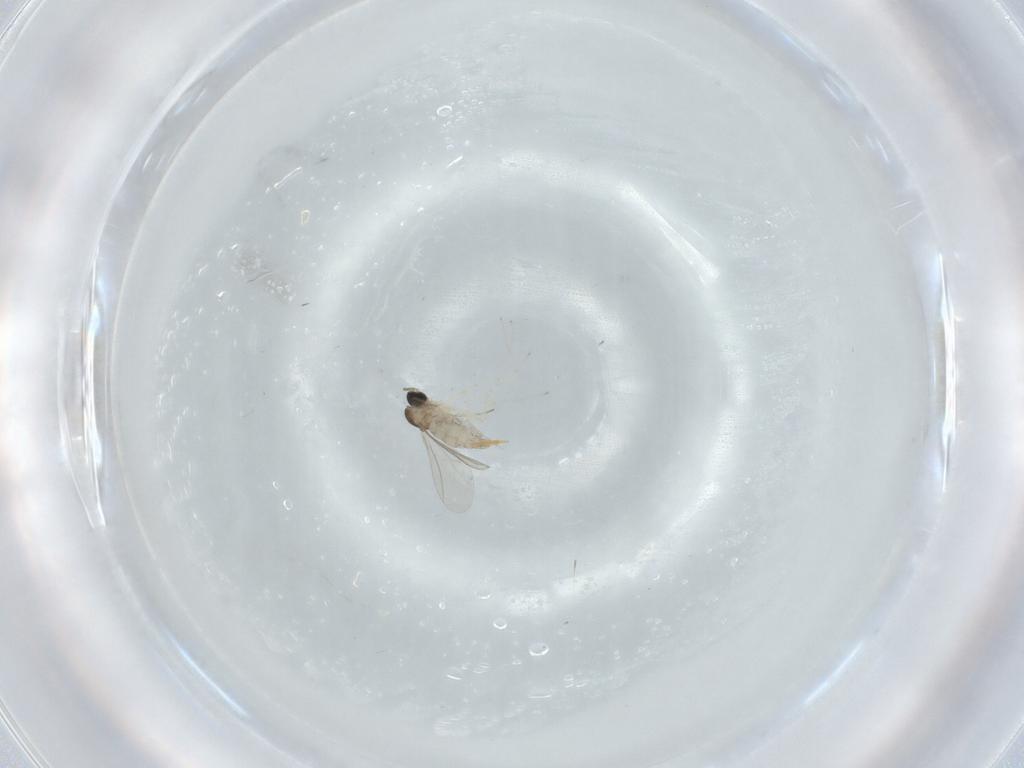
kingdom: Animalia
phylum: Arthropoda
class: Insecta
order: Diptera
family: Cecidomyiidae
